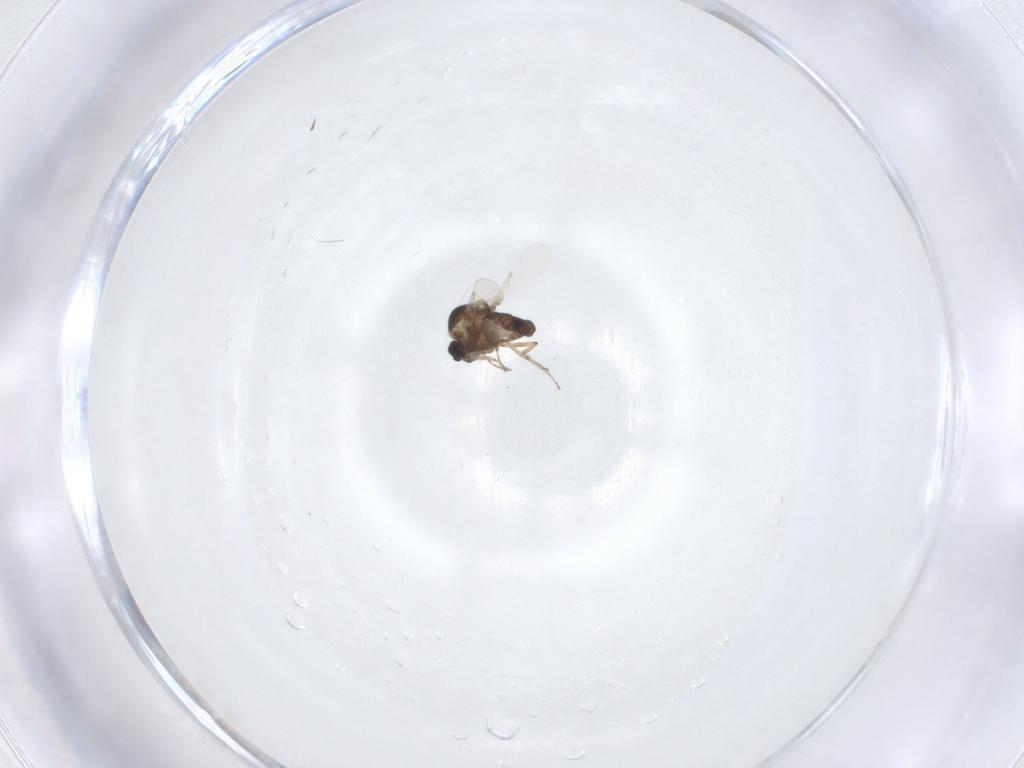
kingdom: Animalia
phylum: Arthropoda
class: Insecta
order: Diptera
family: Ceratopogonidae
